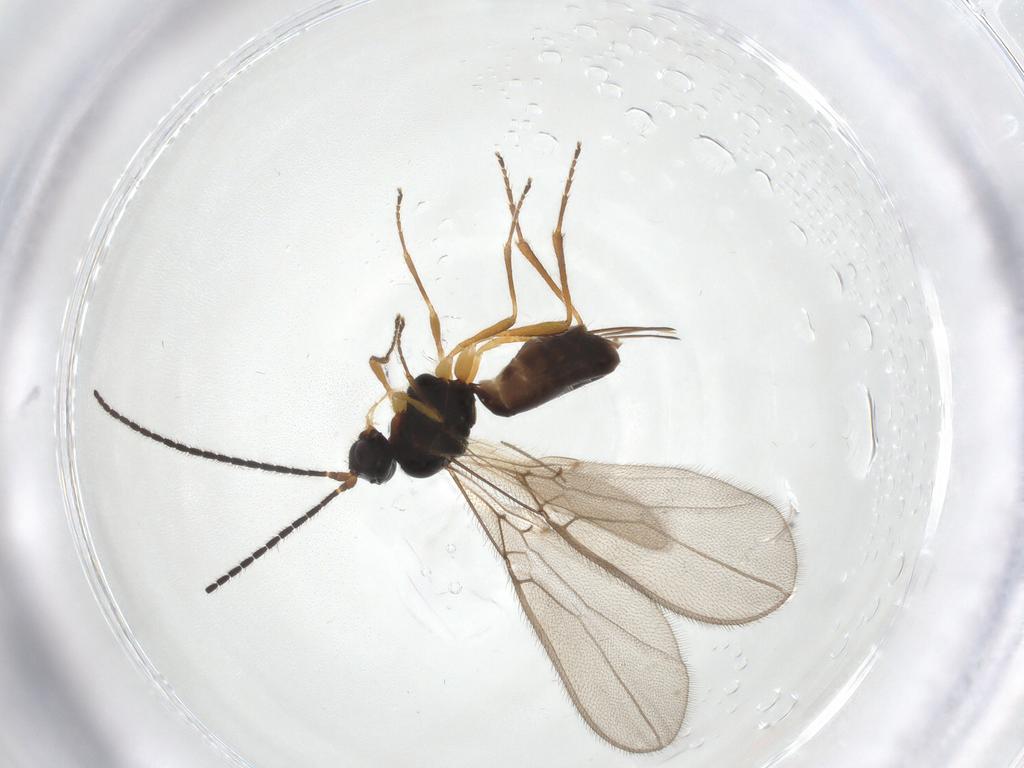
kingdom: Animalia
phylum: Arthropoda
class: Insecta
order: Hymenoptera
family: Braconidae
